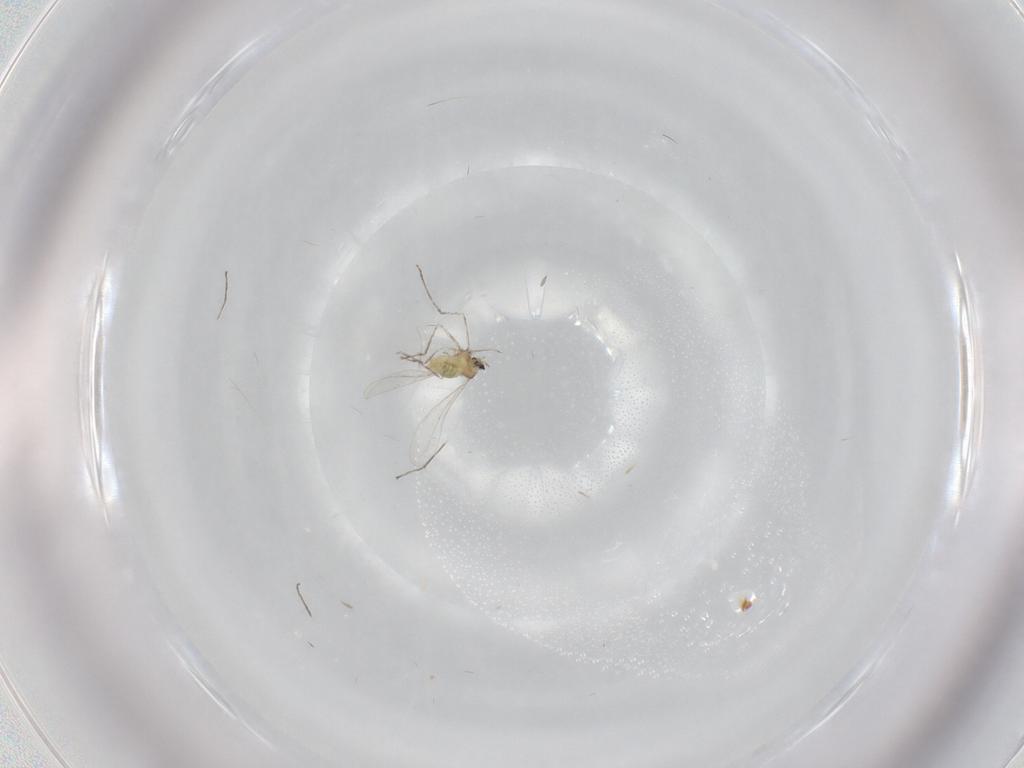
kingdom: Animalia
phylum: Arthropoda
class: Insecta
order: Diptera
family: Cecidomyiidae
